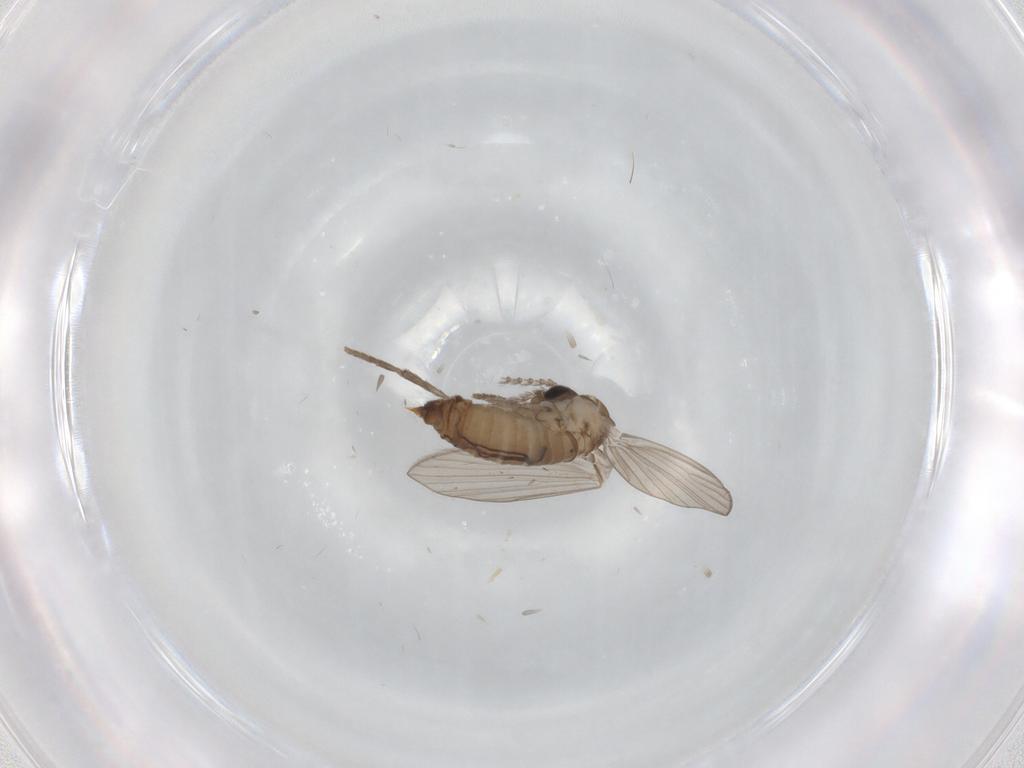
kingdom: Animalia
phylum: Arthropoda
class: Insecta
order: Diptera
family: Psychodidae
